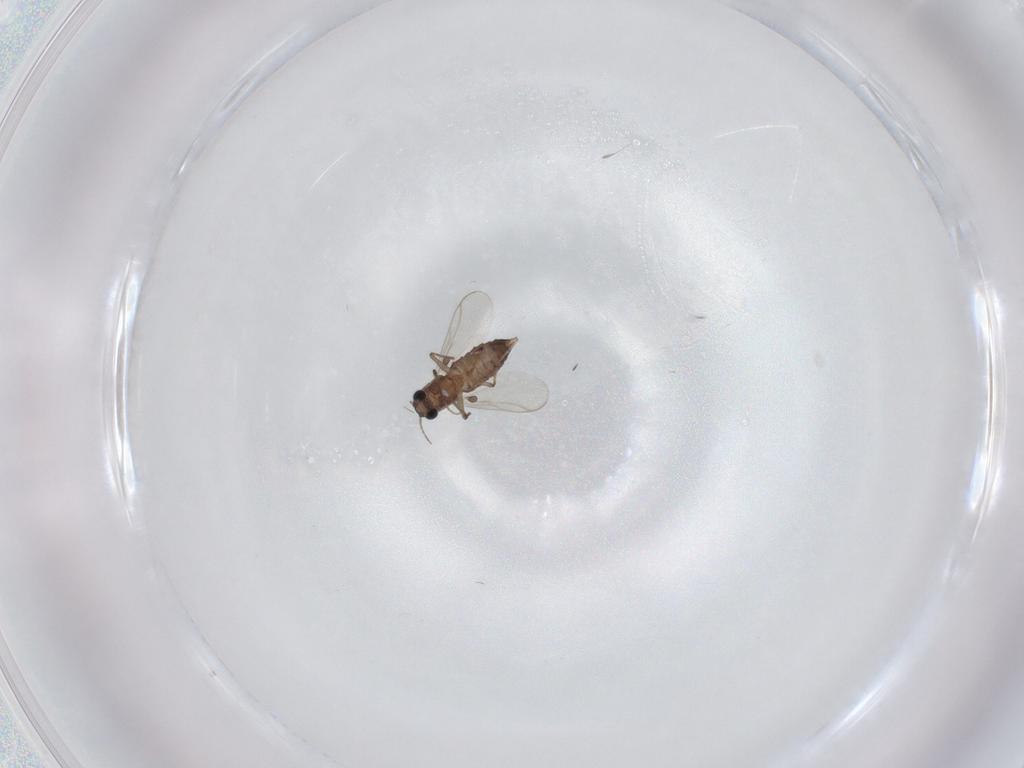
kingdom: Animalia
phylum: Arthropoda
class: Insecta
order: Diptera
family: Chironomidae
